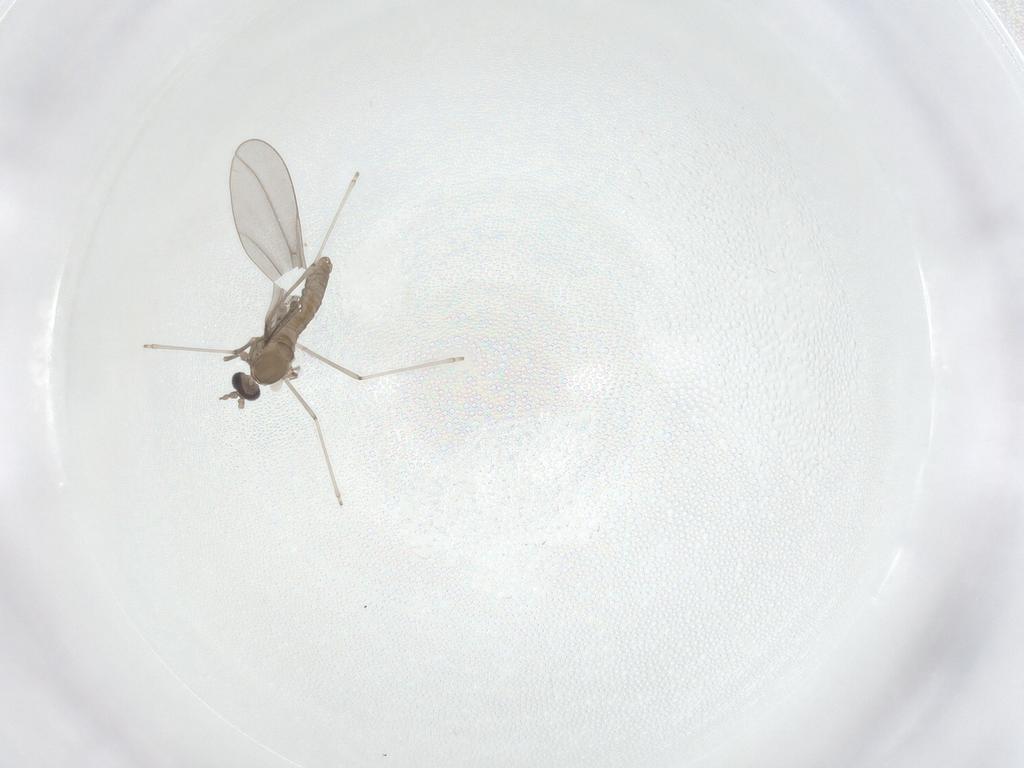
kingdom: Animalia
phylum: Arthropoda
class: Insecta
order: Diptera
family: Cecidomyiidae
